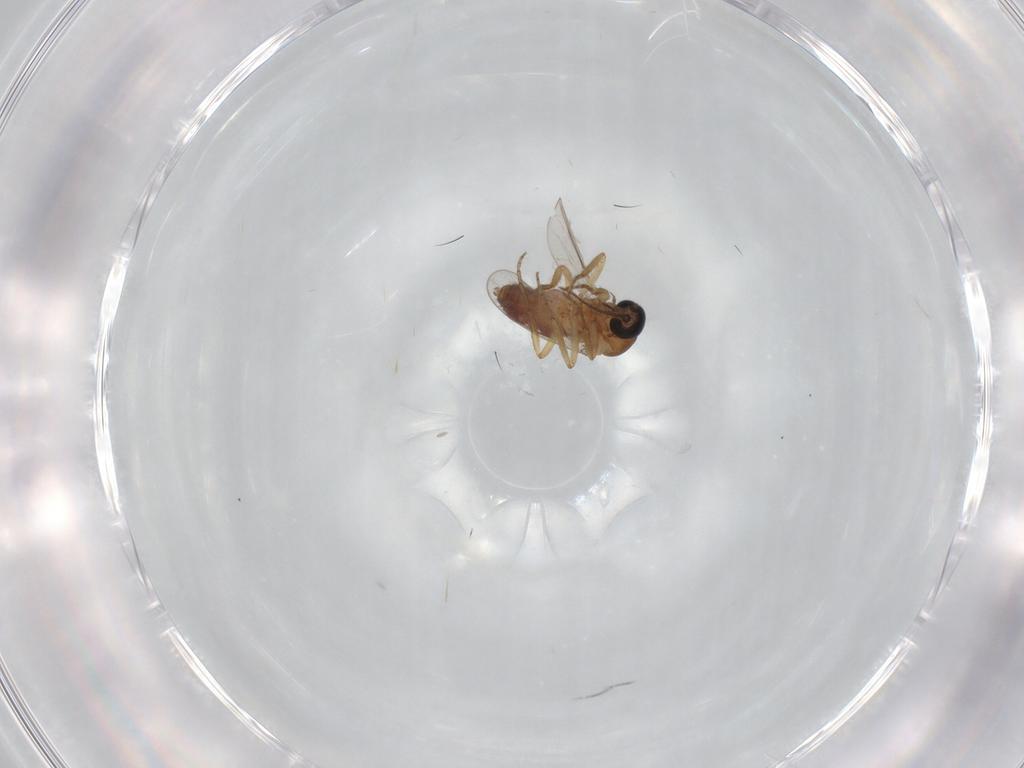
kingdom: Animalia
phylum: Arthropoda
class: Insecta
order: Diptera
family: Ceratopogonidae
